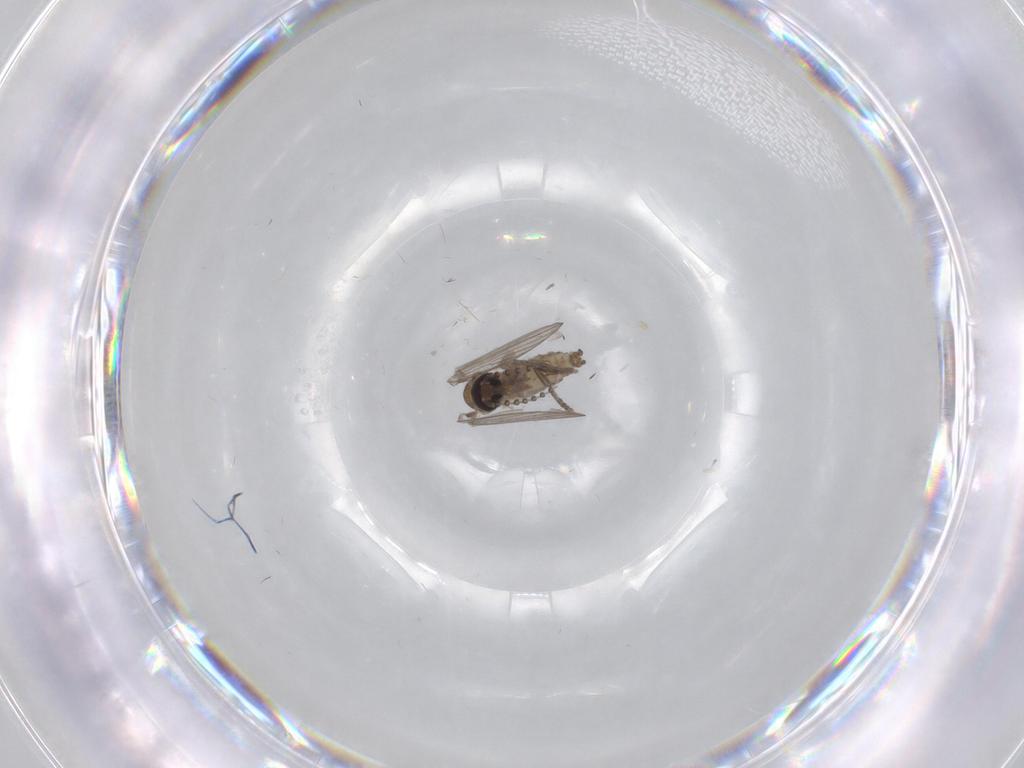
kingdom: Animalia
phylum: Arthropoda
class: Insecta
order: Diptera
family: Psychodidae
